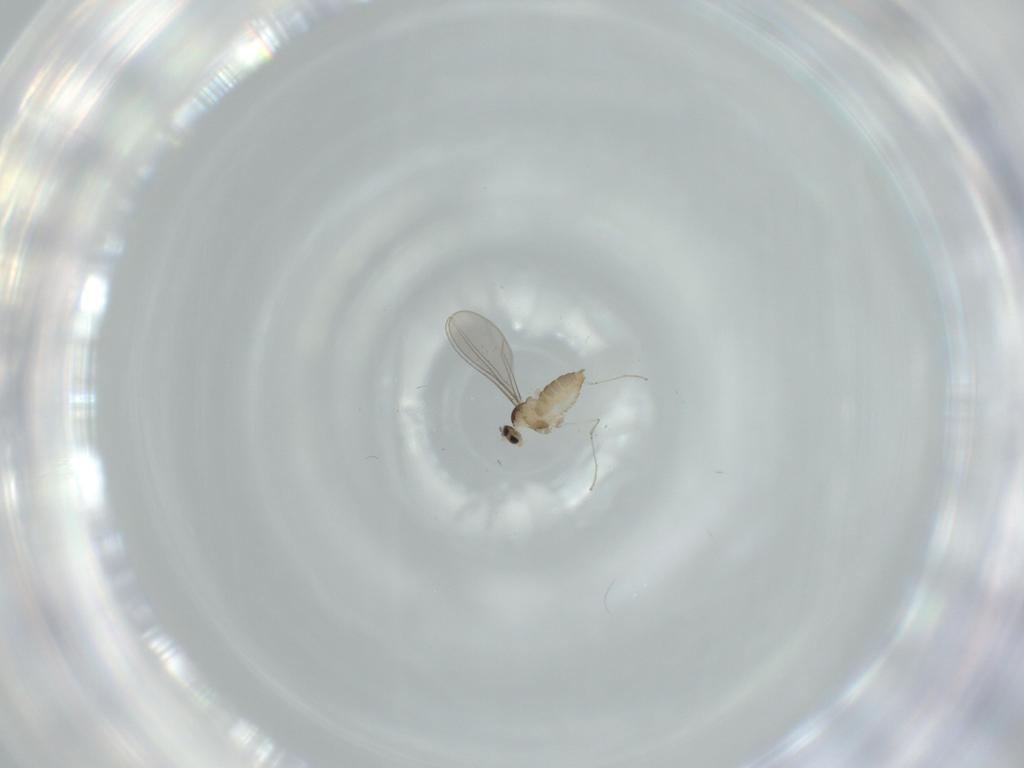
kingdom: Animalia
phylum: Arthropoda
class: Insecta
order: Diptera
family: Cecidomyiidae
